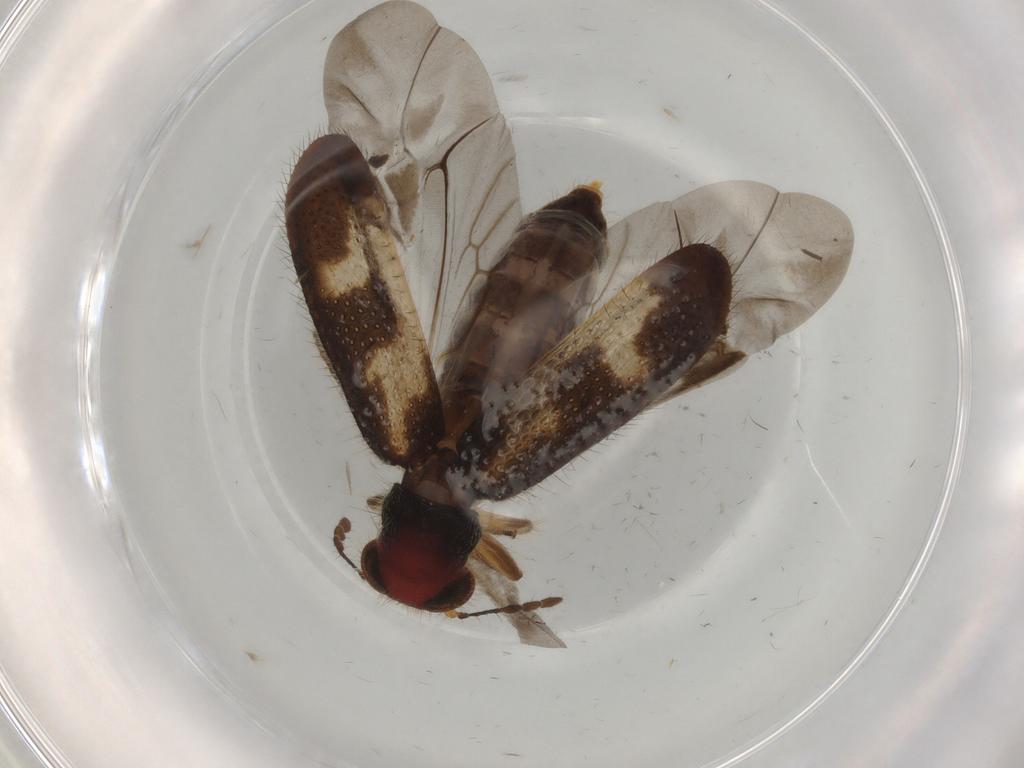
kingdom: Animalia
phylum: Arthropoda
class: Insecta
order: Coleoptera
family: Cleridae
